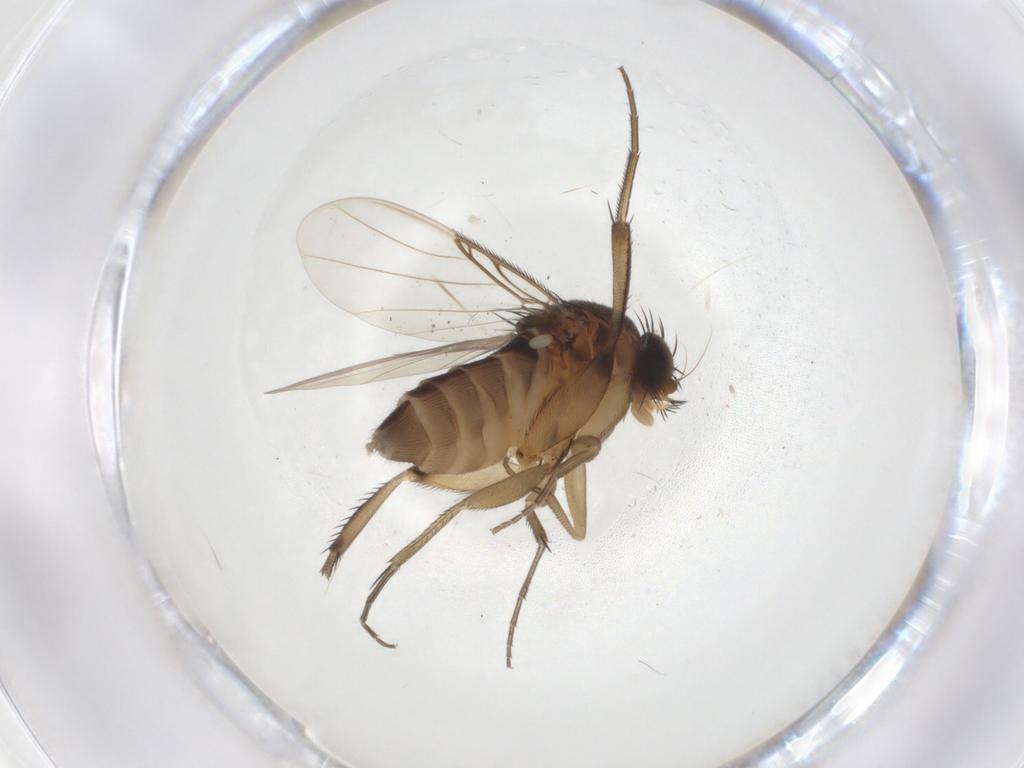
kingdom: Animalia
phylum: Arthropoda
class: Insecta
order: Diptera
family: Phoridae
